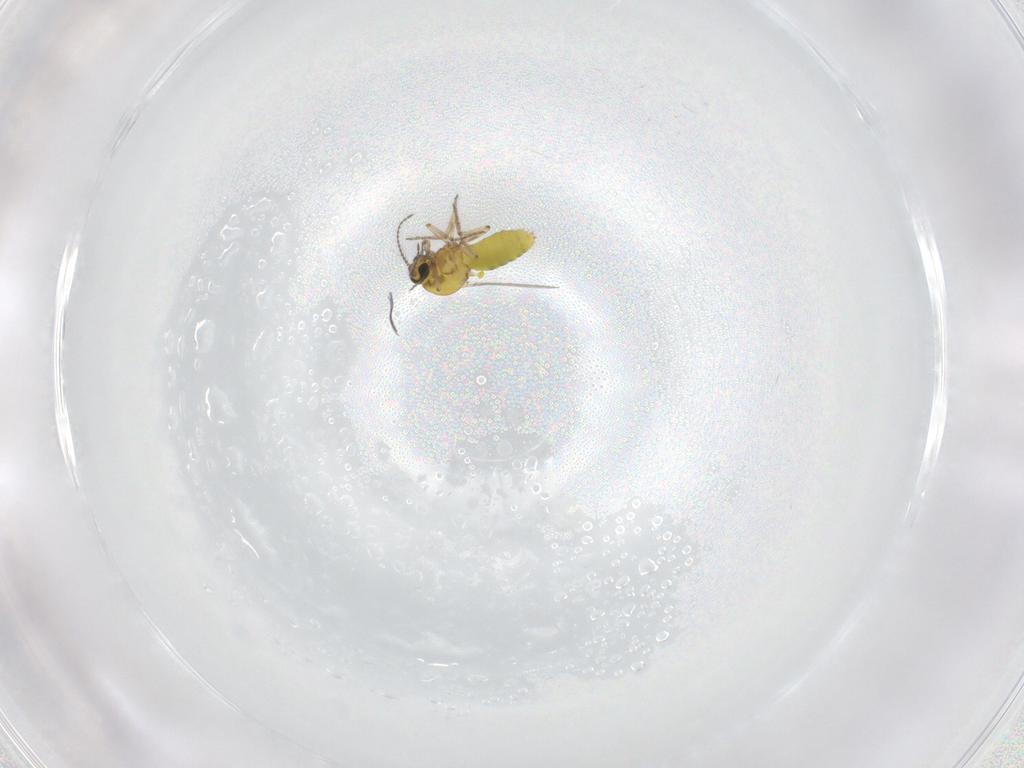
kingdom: Animalia
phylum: Arthropoda
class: Insecta
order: Diptera
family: Ceratopogonidae
